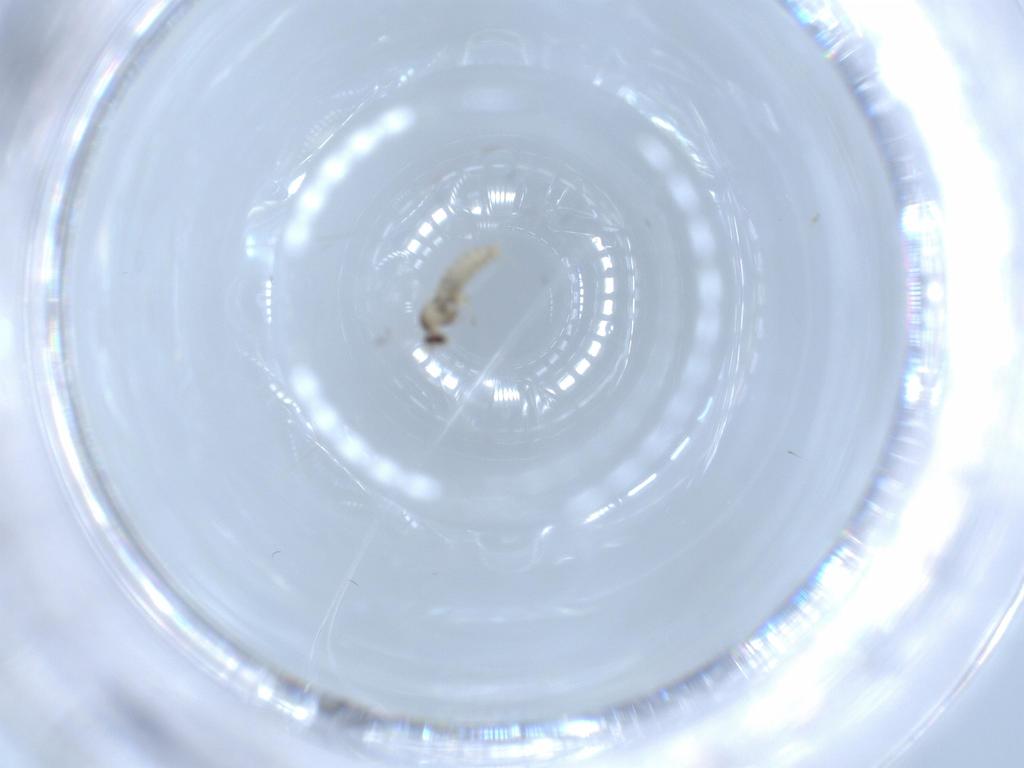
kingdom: Animalia
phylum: Arthropoda
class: Insecta
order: Diptera
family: Cecidomyiidae
